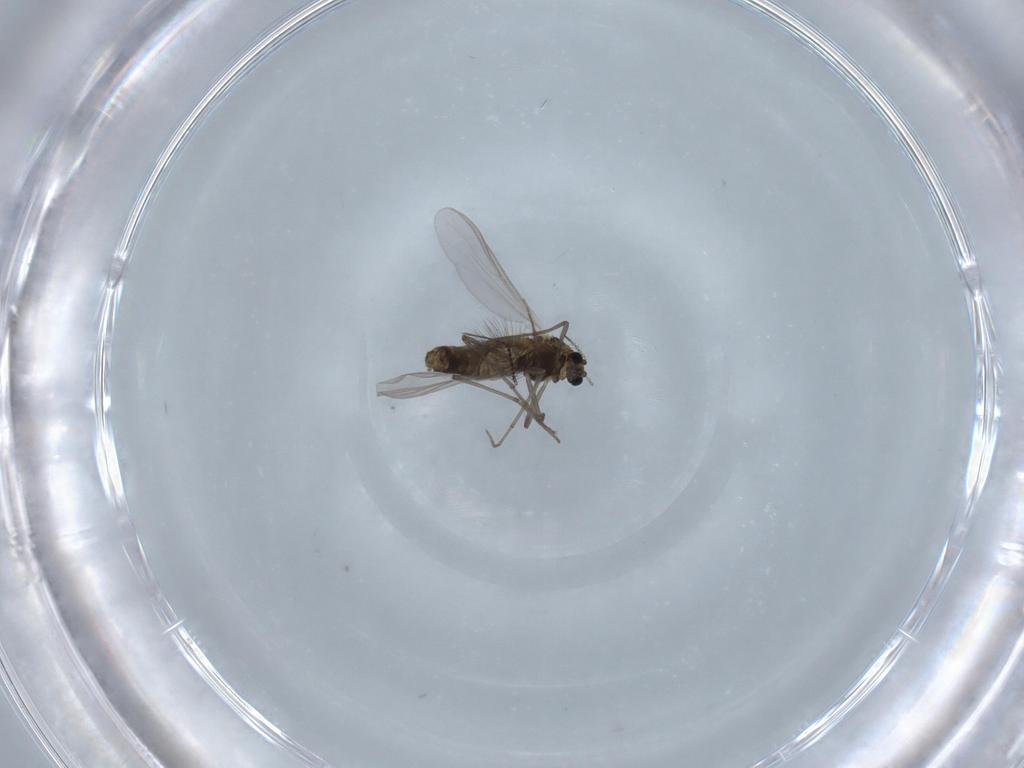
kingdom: Animalia
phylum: Arthropoda
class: Insecta
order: Diptera
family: Chironomidae
